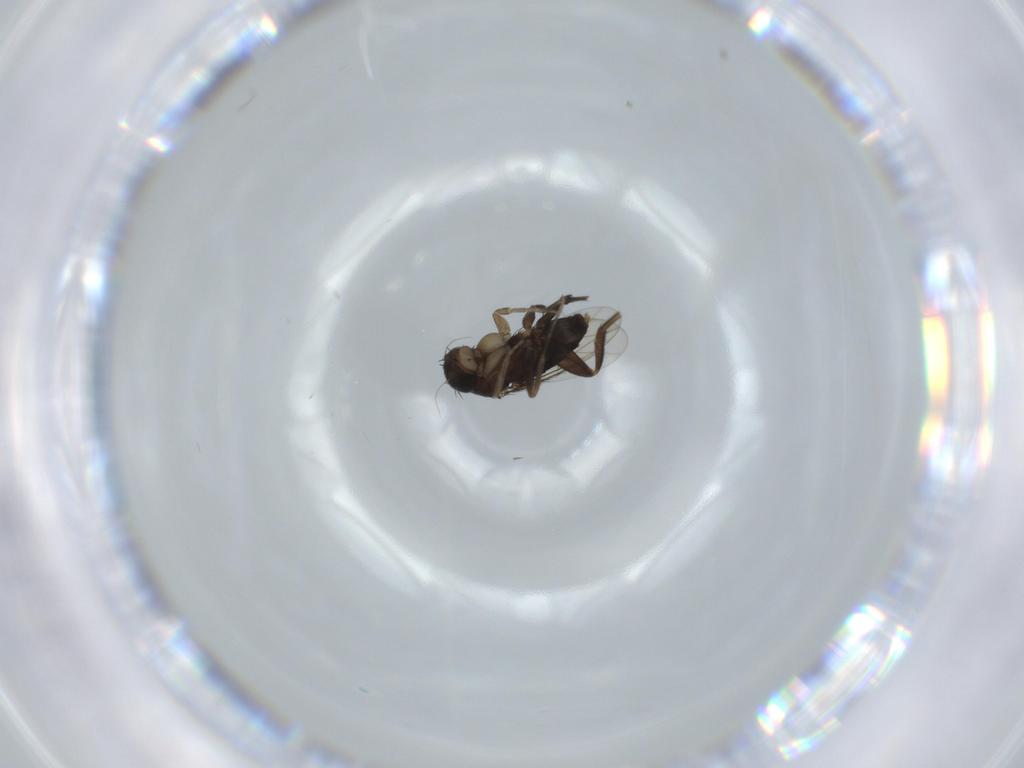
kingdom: Animalia
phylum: Arthropoda
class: Insecta
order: Diptera
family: Phoridae
